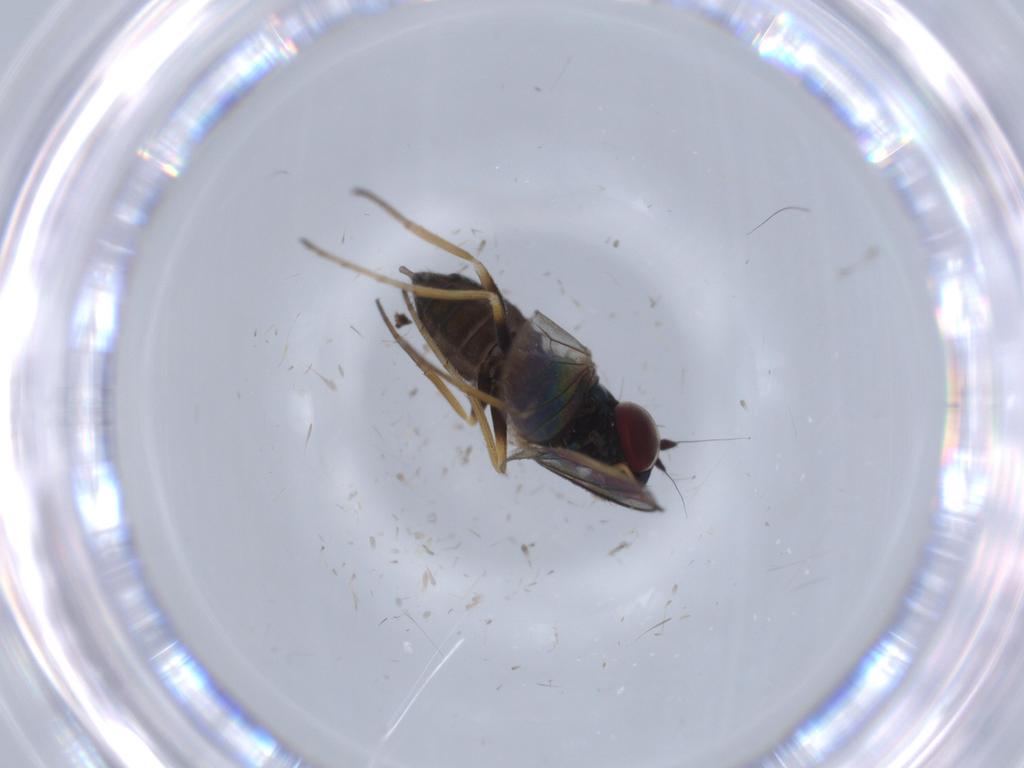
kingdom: Animalia
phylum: Arthropoda
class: Insecta
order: Diptera
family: Dolichopodidae
